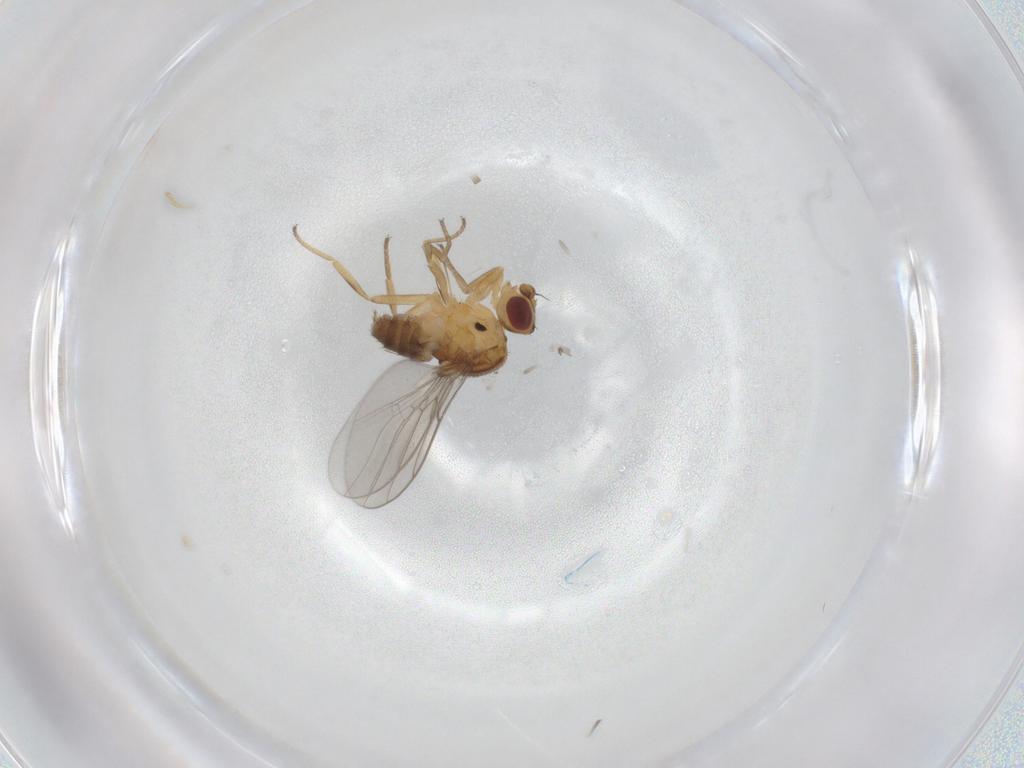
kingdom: Animalia
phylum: Arthropoda
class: Insecta
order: Diptera
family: Chloropidae
